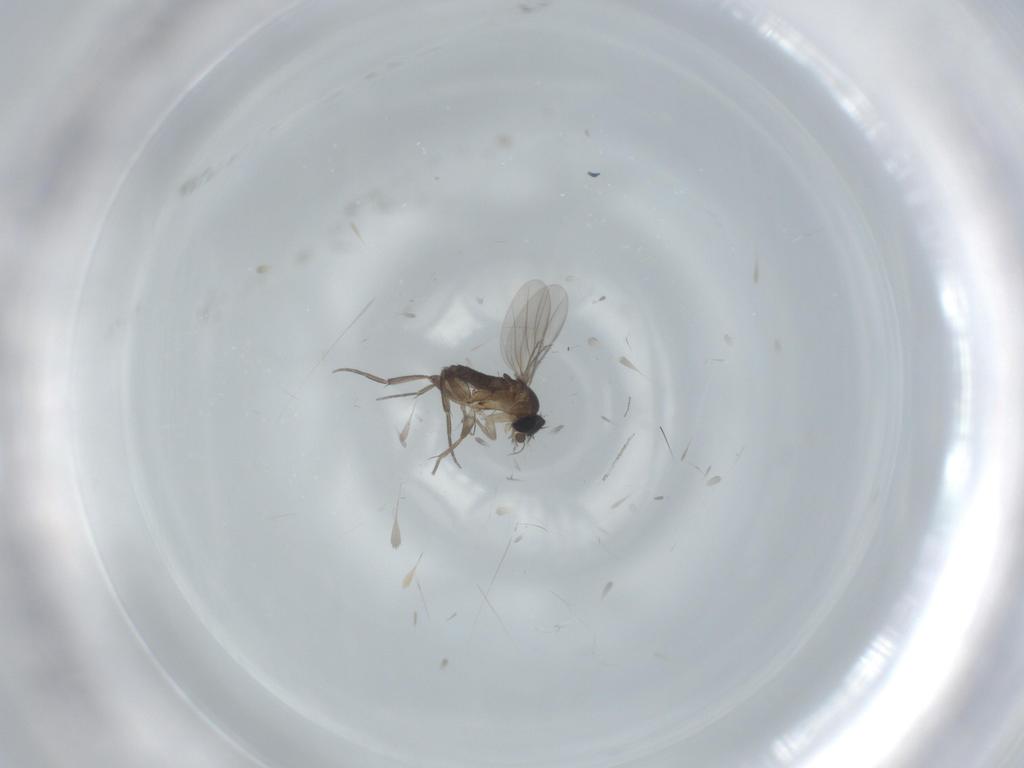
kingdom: Animalia
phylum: Arthropoda
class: Insecta
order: Diptera
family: Phoridae
